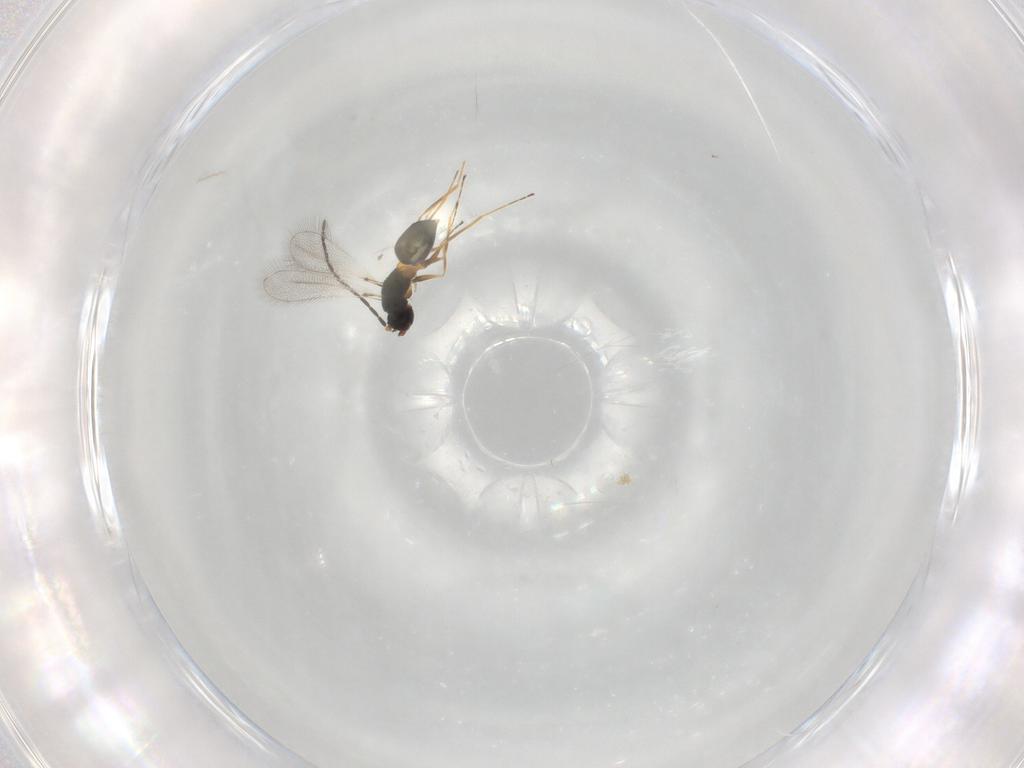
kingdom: Animalia
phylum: Arthropoda
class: Insecta
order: Hymenoptera
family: Mymaridae
